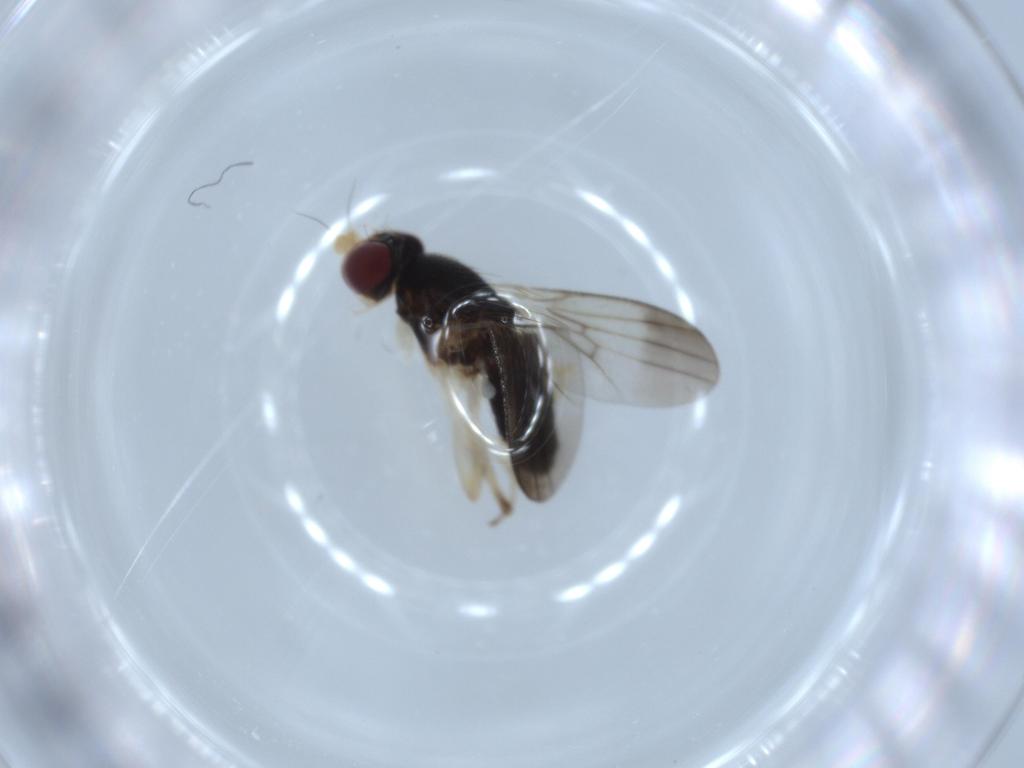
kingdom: Animalia
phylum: Arthropoda
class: Insecta
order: Diptera
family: Clusiidae
